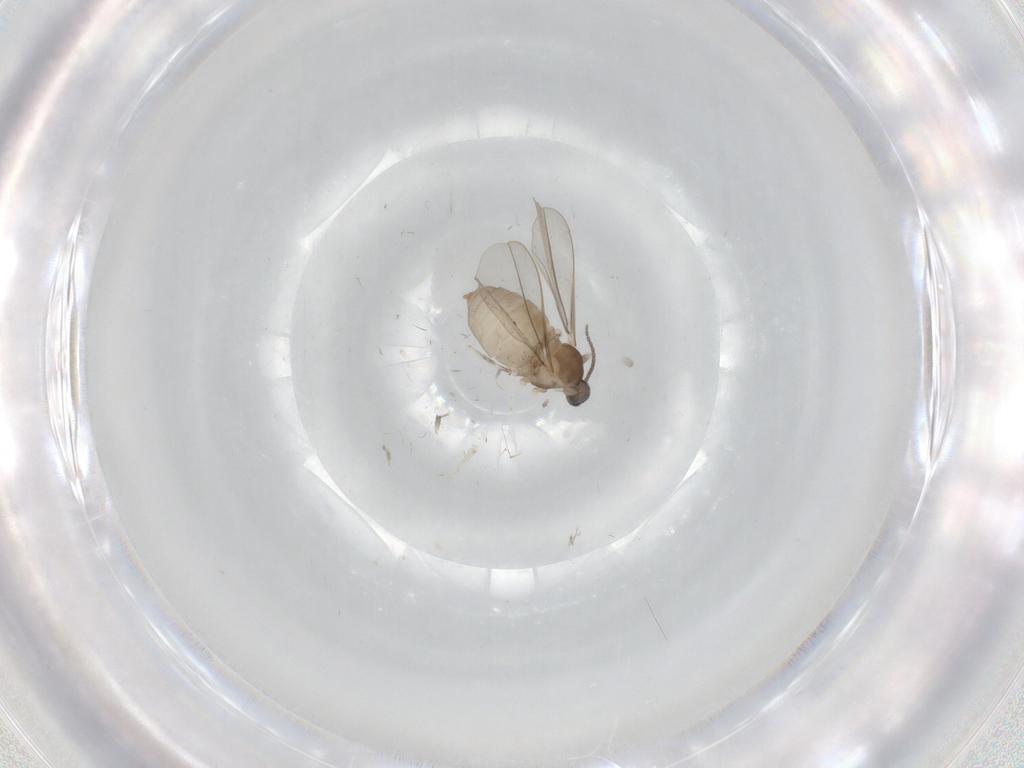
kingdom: Animalia
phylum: Arthropoda
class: Insecta
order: Diptera
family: Cecidomyiidae
